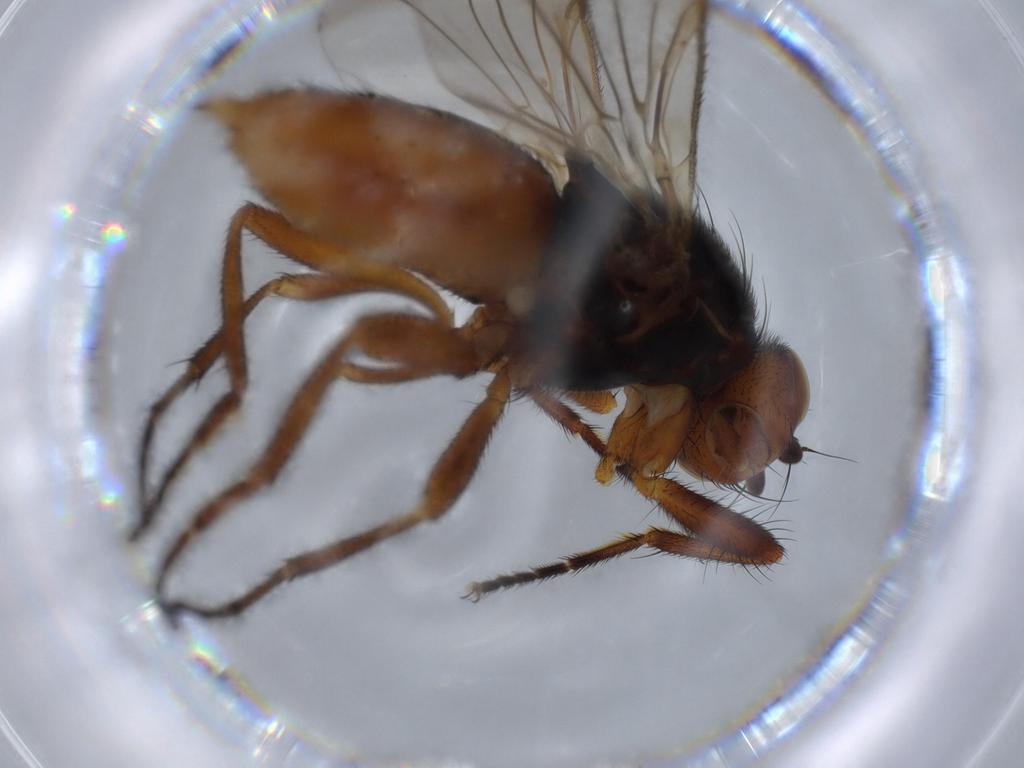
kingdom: Animalia
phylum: Arthropoda
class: Insecta
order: Diptera
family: Heleomyzidae
